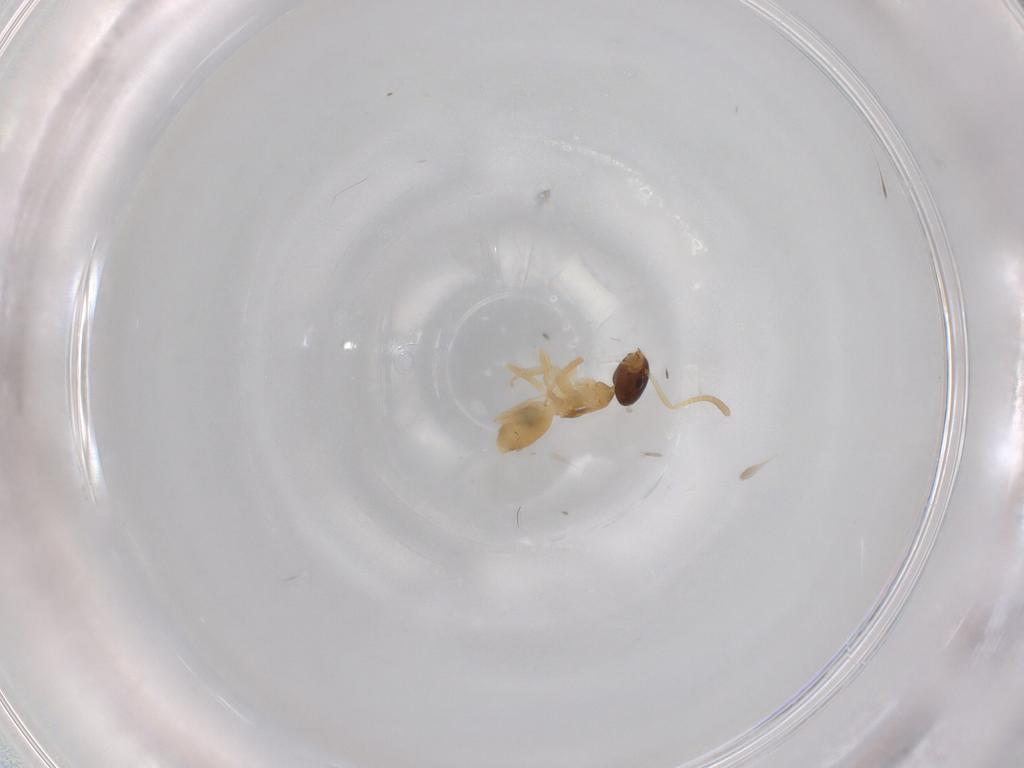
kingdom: Animalia
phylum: Arthropoda
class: Insecta
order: Hymenoptera
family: Formicidae
